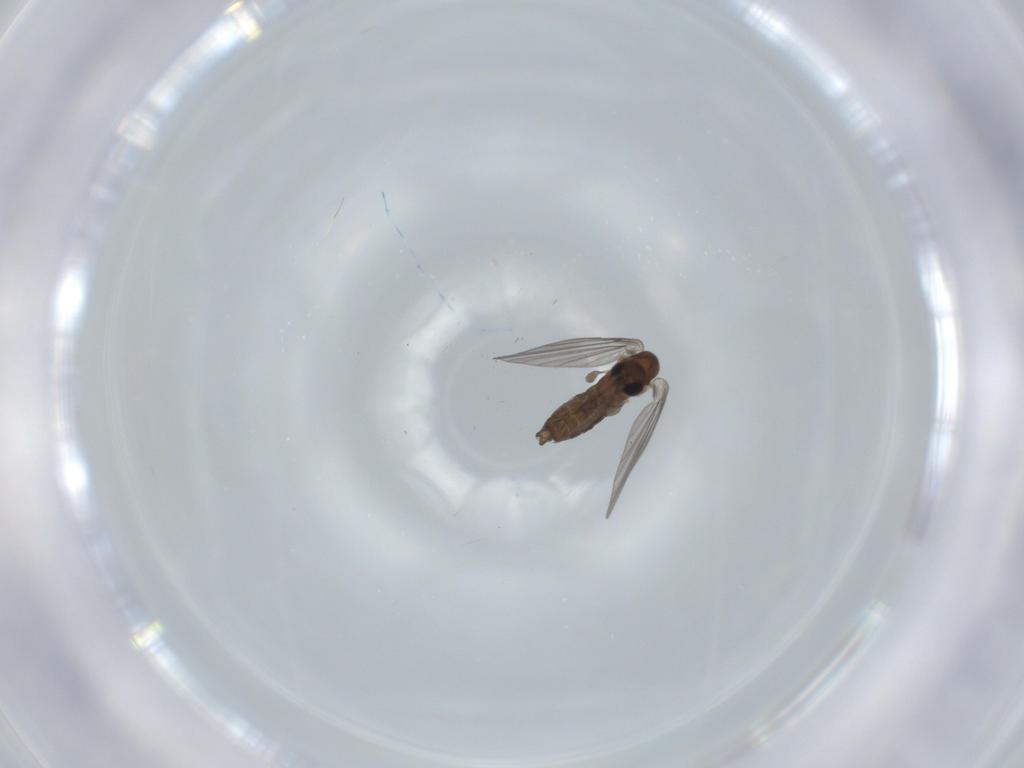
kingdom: Animalia
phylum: Arthropoda
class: Insecta
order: Diptera
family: Psychodidae
